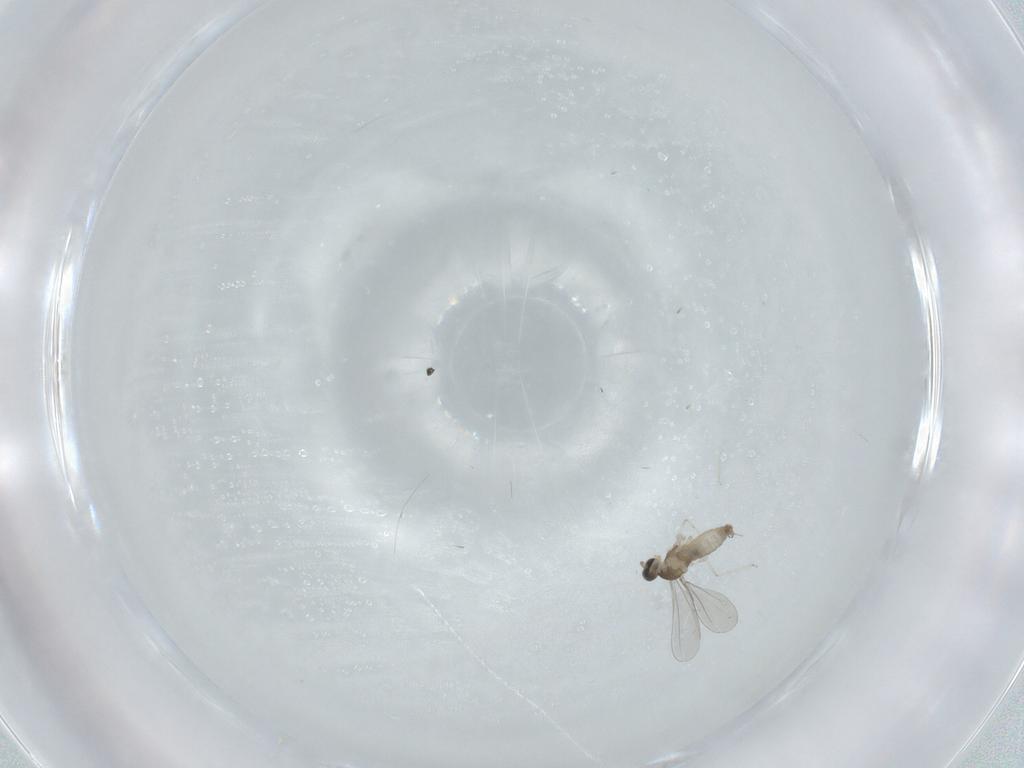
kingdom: Animalia
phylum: Arthropoda
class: Insecta
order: Diptera
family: Cecidomyiidae
